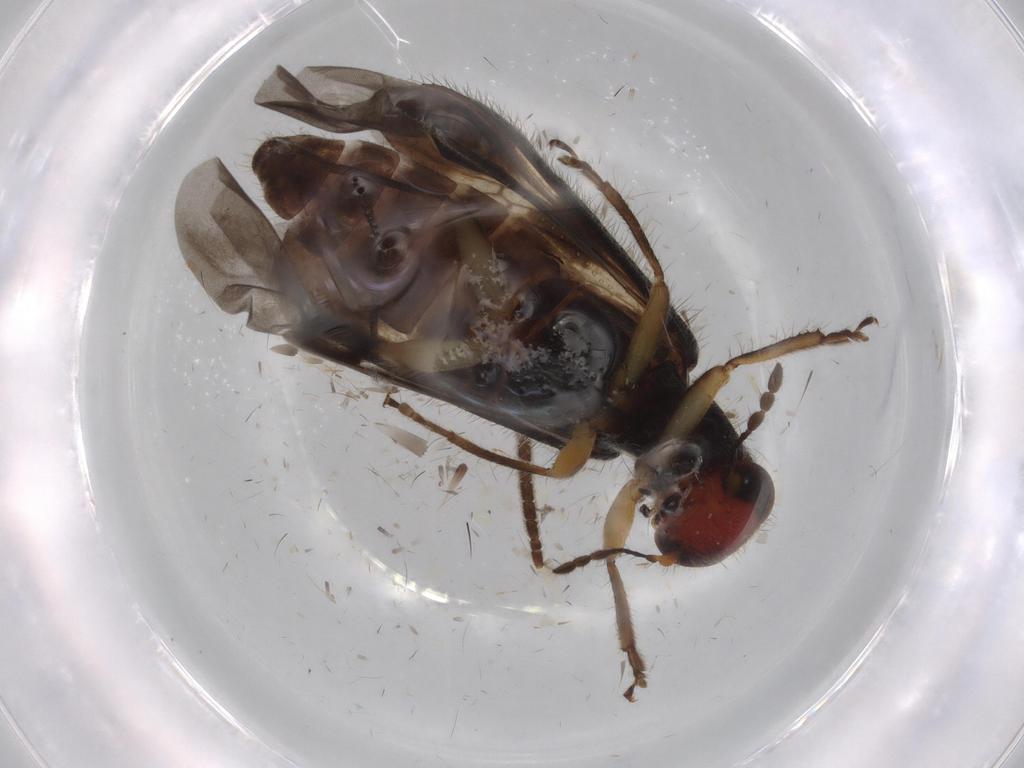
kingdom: Animalia
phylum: Arthropoda
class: Insecta
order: Coleoptera
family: Cleridae
